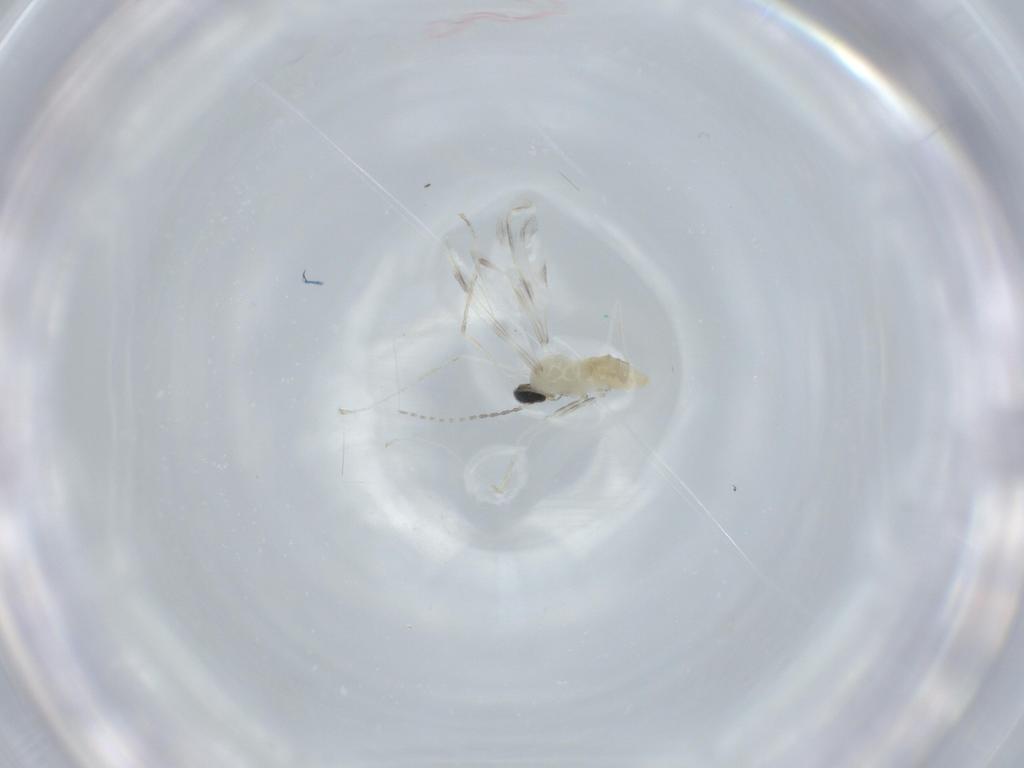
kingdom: Animalia
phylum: Arthropoda
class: Insecta
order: Diptera
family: Cecidomyiidae
